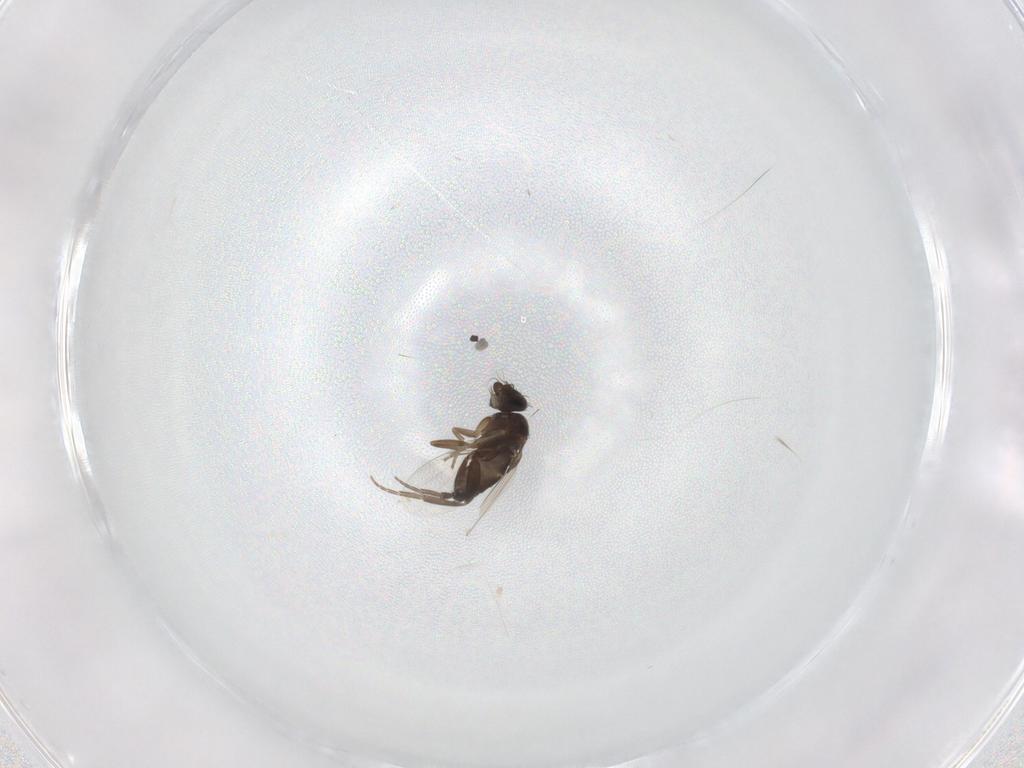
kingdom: Animalia
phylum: Arthropoda
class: Insecta
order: Diptera
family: Phoridae
